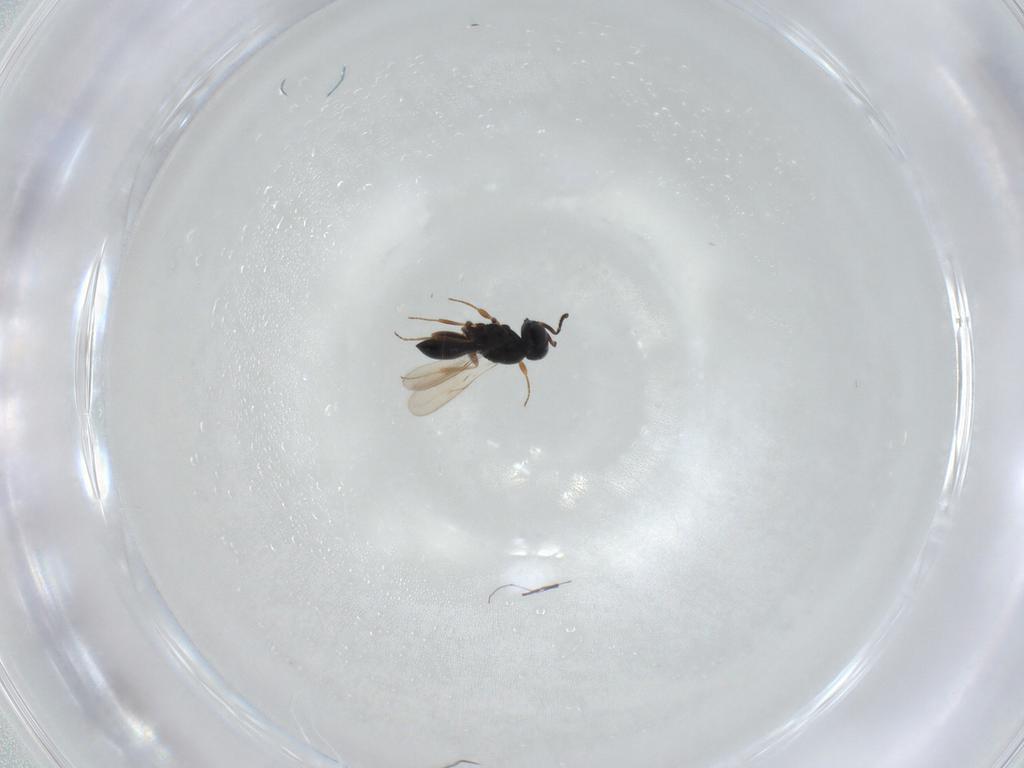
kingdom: Animalia
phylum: Arthropoda
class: Insecta
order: Hymenoptera
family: Scelionidae
